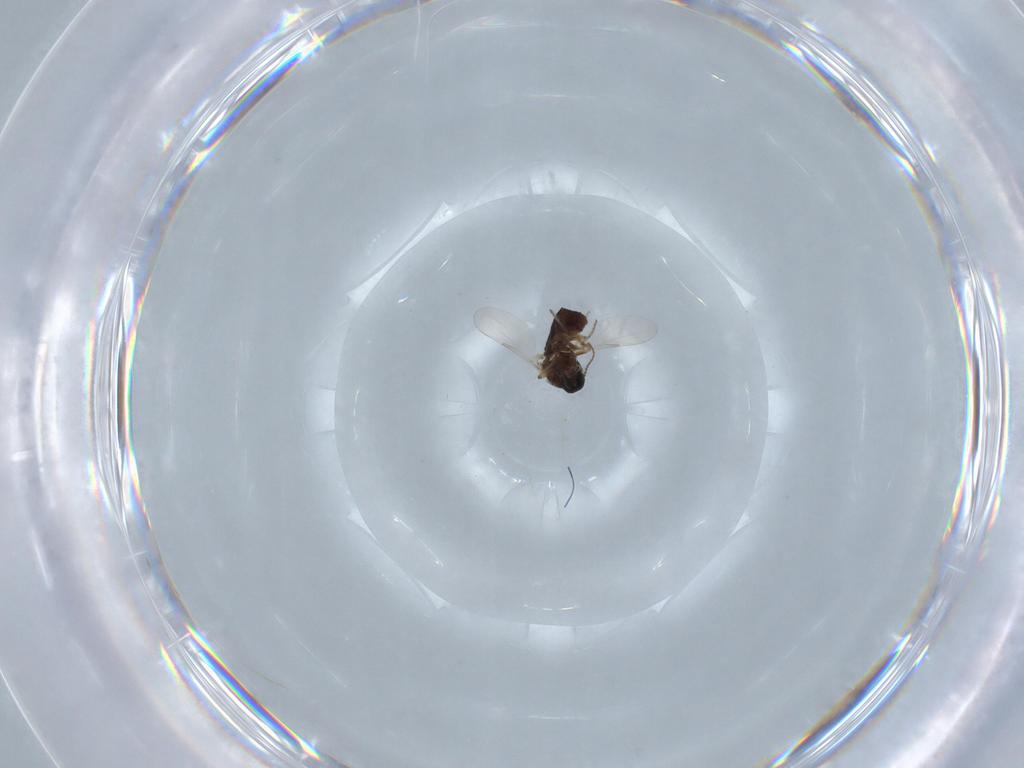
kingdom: Animalia
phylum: Arthropoda
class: Insecta
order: Diptera
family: Ceratopogonidae
